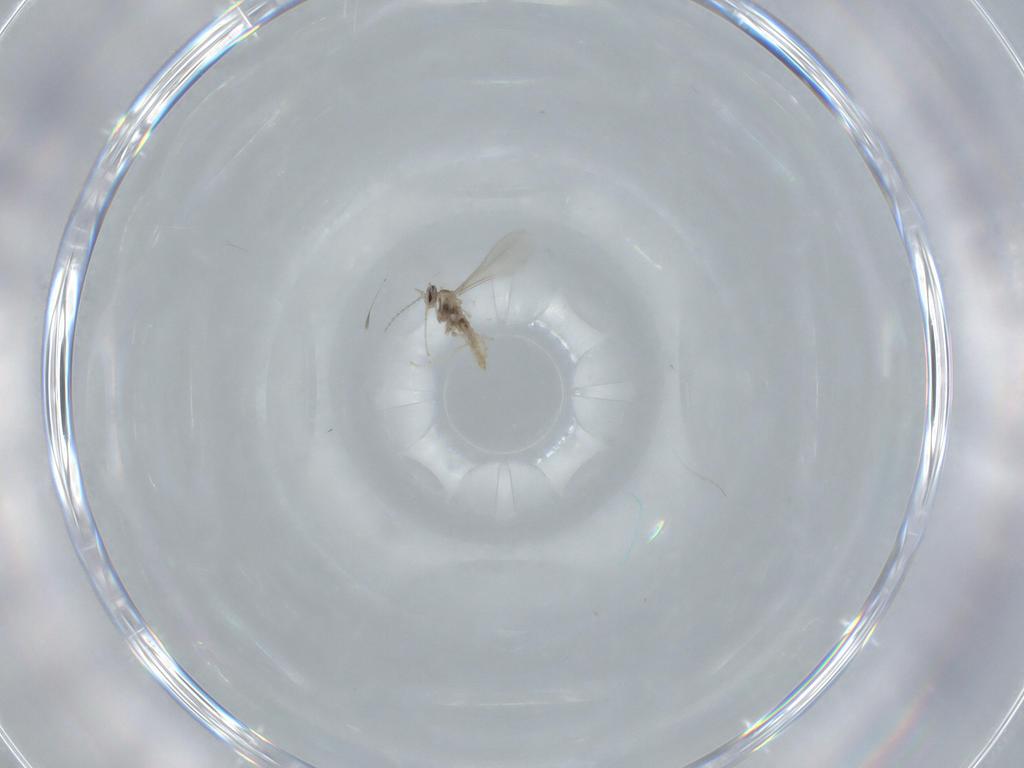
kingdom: Animalia
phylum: Arthropoda
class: Insecta
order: Diptera
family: Cecidomyiidae
